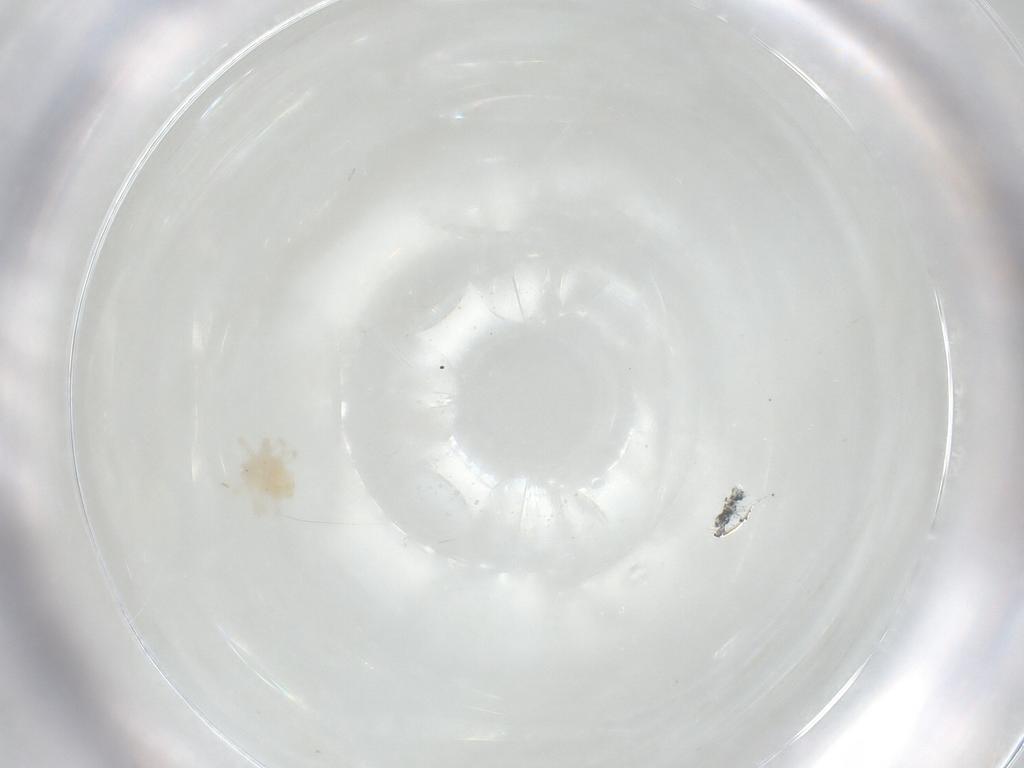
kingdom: Animalia
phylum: Arthropoda
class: Arachnida
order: Trombidiformes
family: Anystidae
